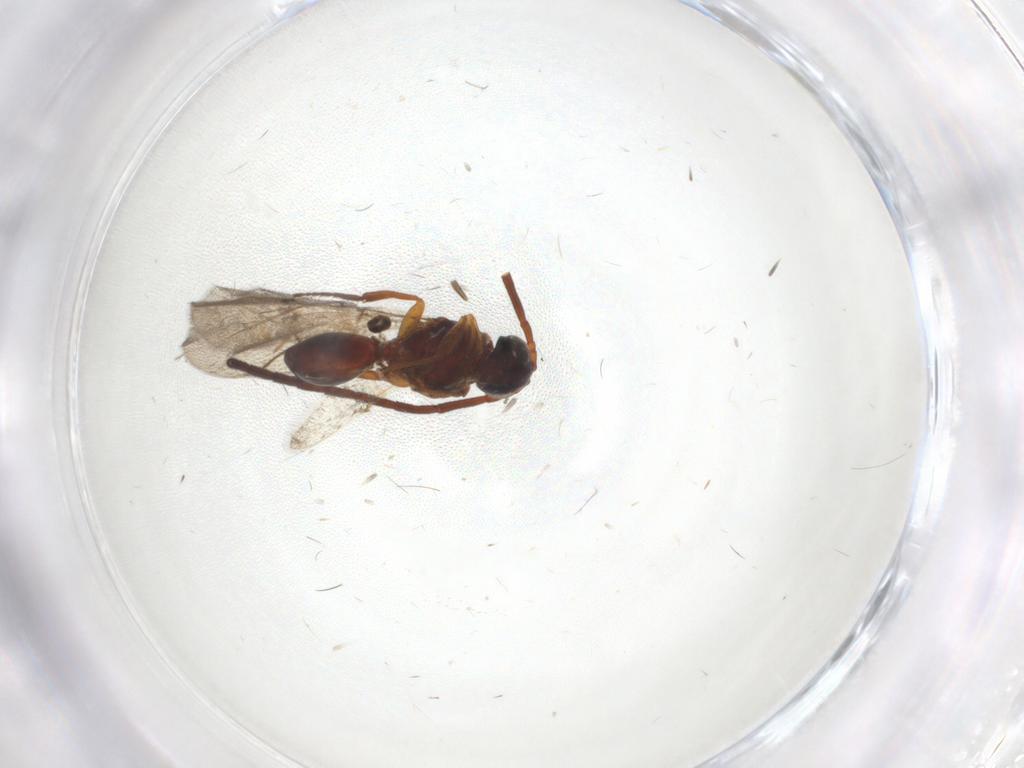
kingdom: Animalia
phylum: Arthropoda
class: Insecta
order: Hymenoptera
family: Figitidae
